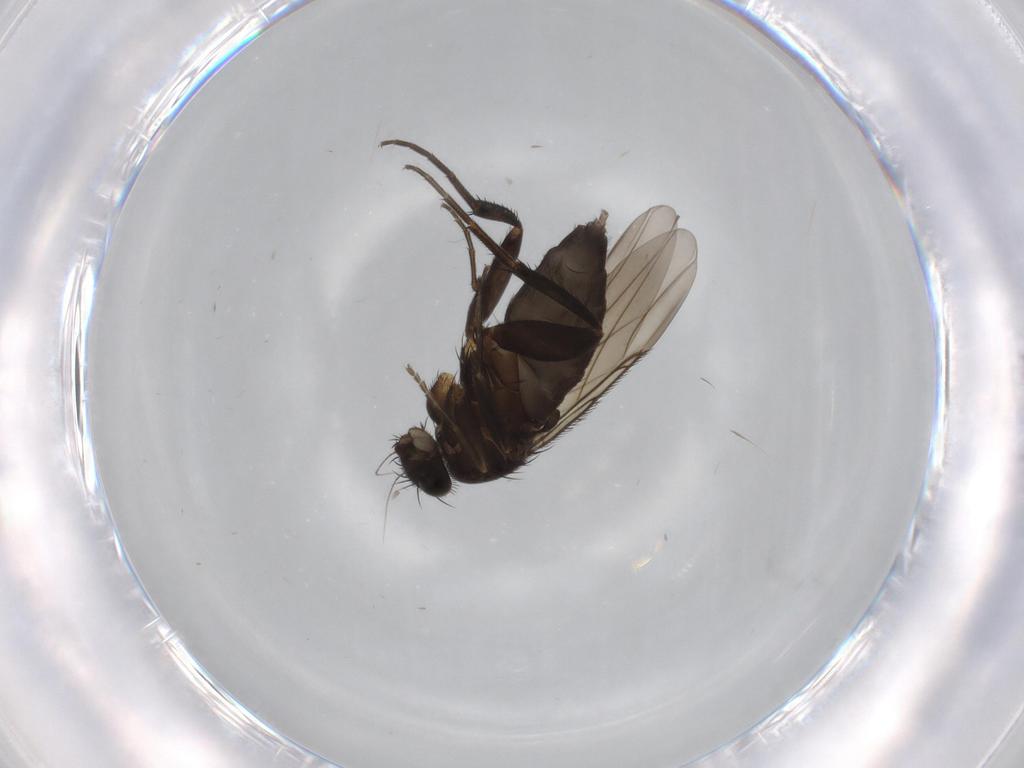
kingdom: Animalia
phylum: Arthropoda
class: Insecta
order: Diptera
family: Phoridae
